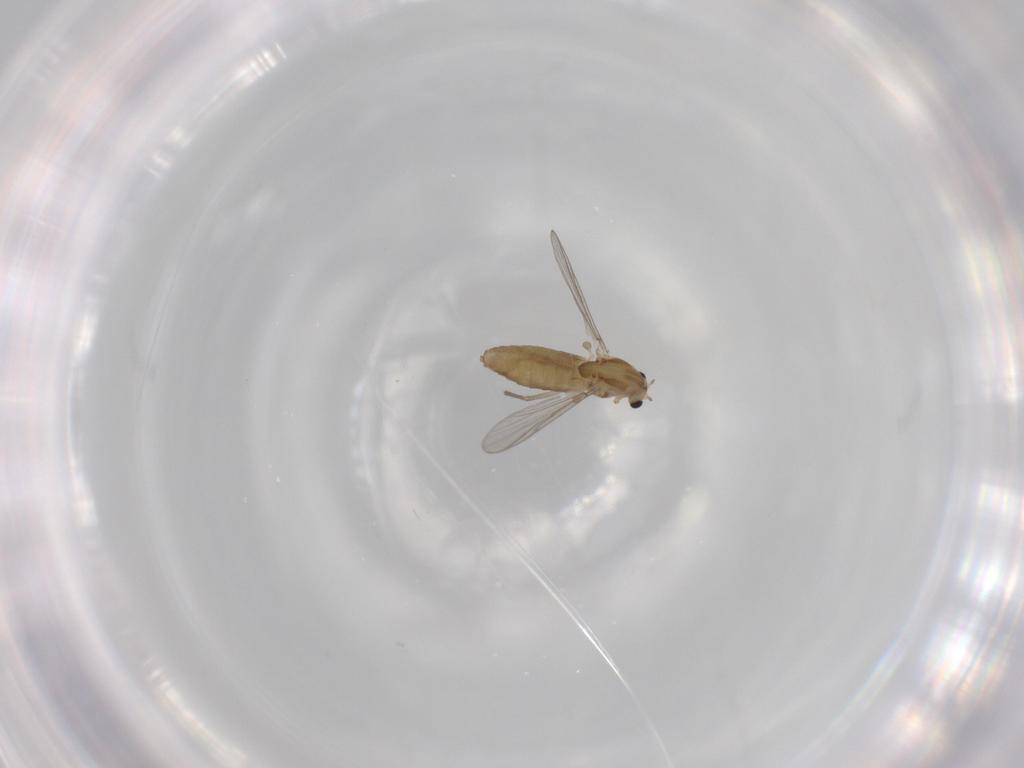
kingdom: Animalia
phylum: Arthropoda
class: Insecta
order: Diptera
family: Chironomidae
